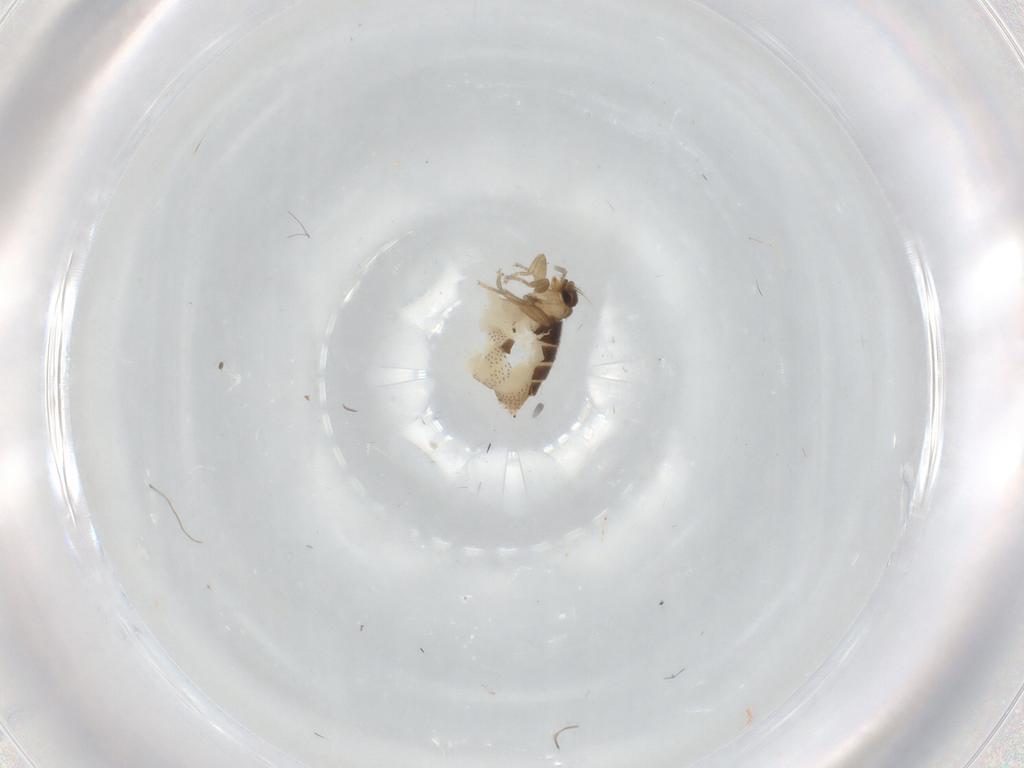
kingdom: Animalia
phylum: Arthropoda
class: Insecta
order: Diptera
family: Phoridae
